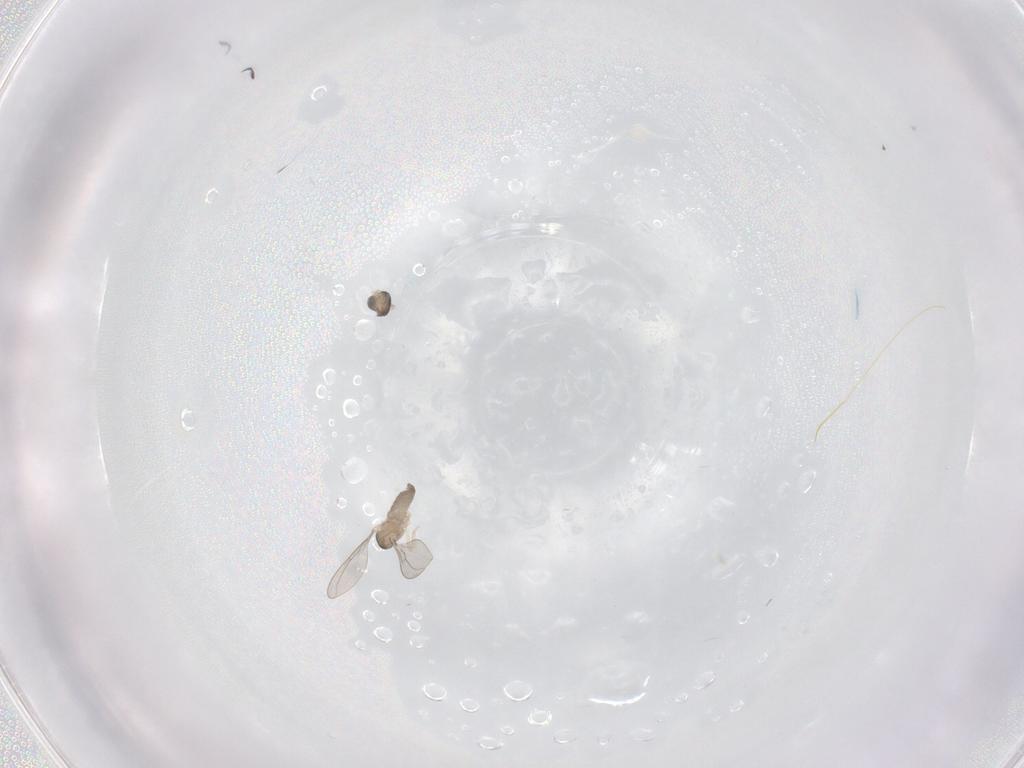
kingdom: Animalia
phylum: Arthropoda
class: Insecta
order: Diptera
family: Cecidomyiidae
